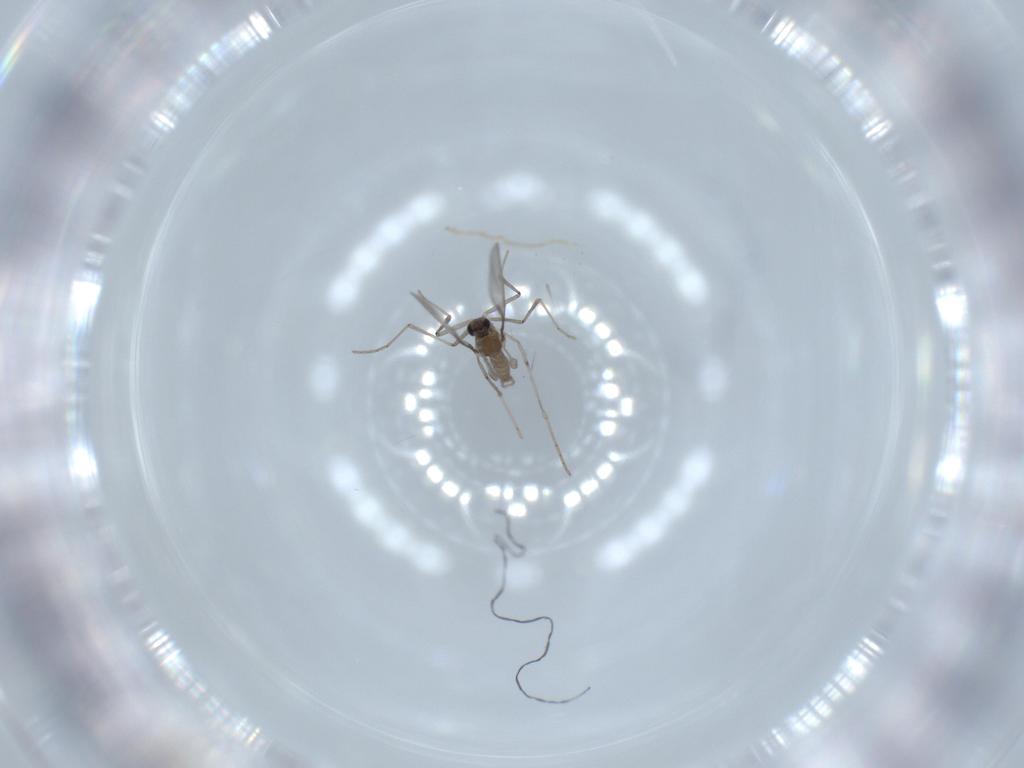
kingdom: Animalia
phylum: Arthropoda
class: Insecta
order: Diptera
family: Cecidomyiidae
